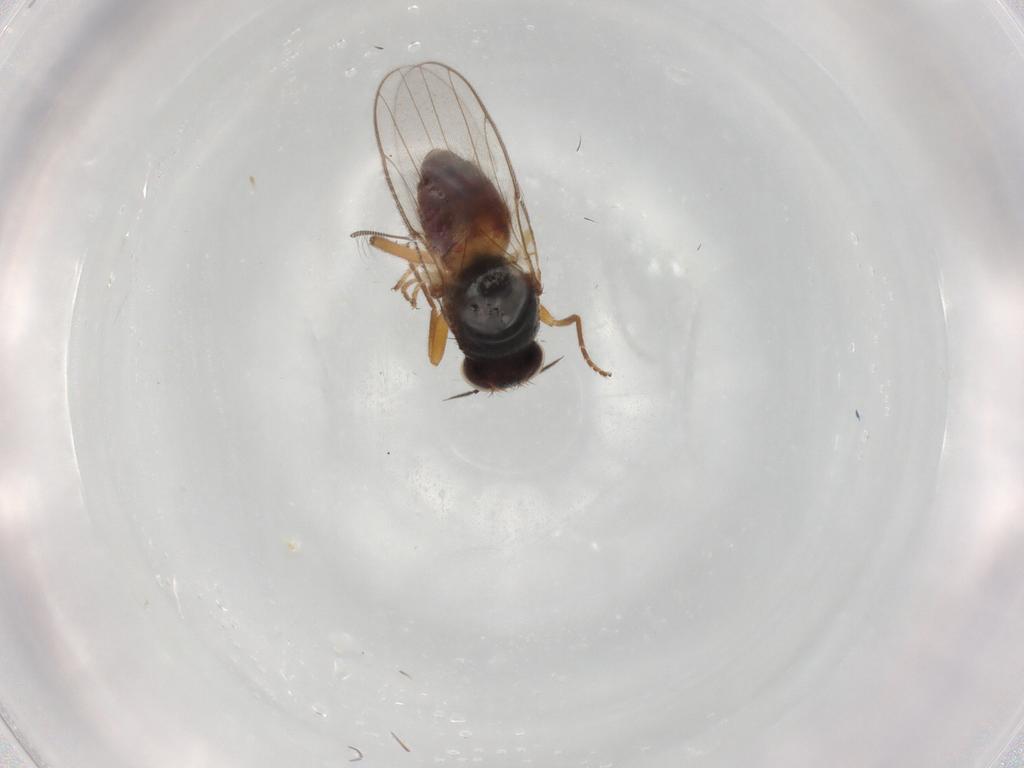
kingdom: Animalia
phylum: Arthropoda
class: Insecta
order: Diptera
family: Chloropidae
